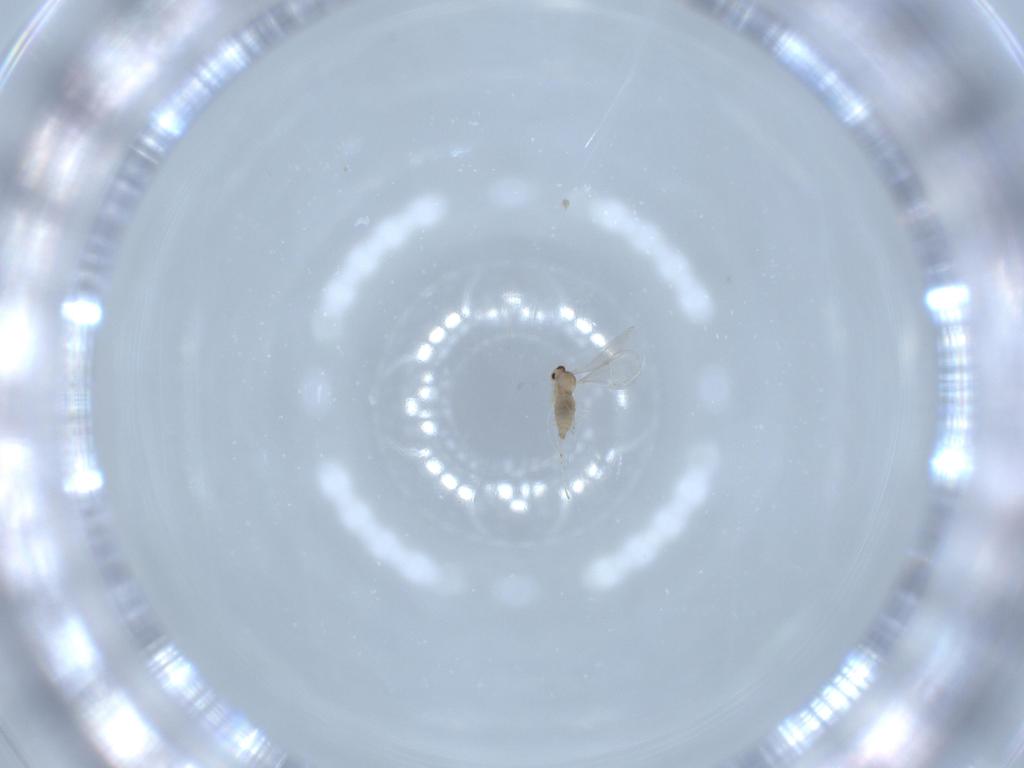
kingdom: Animalia
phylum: Arthropoda
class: Insecta
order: Diptera
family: Cecidomyiidae
